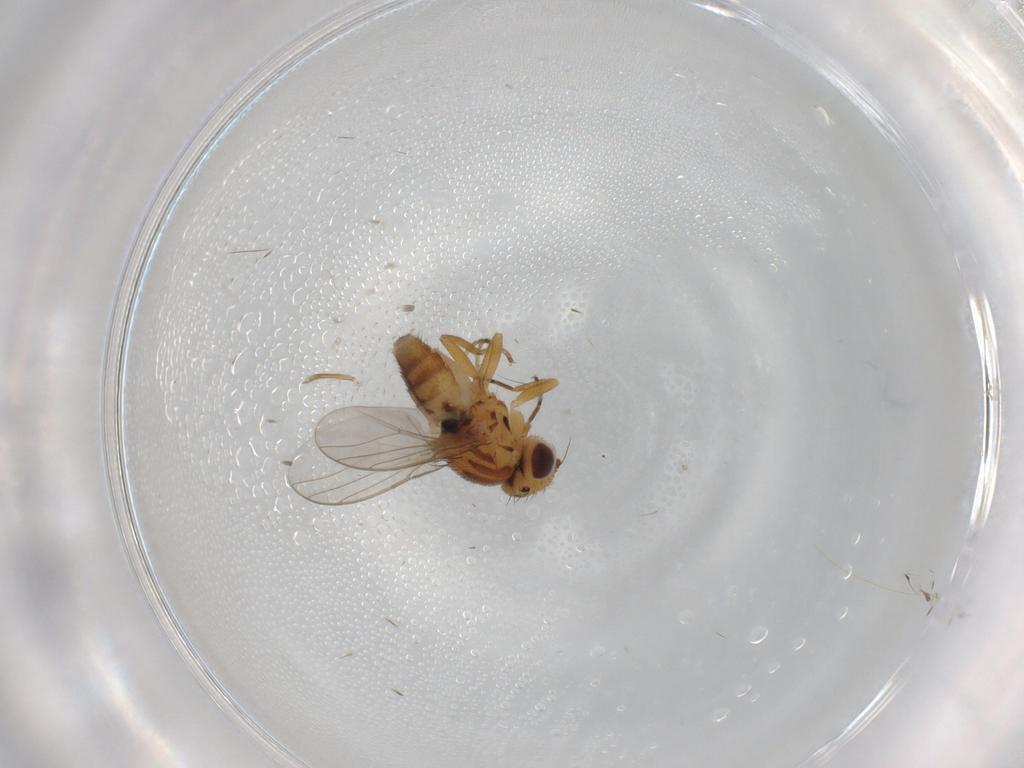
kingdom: Animalia
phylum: Arthropoda
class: Insecta
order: Diptera
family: Chloropidae
